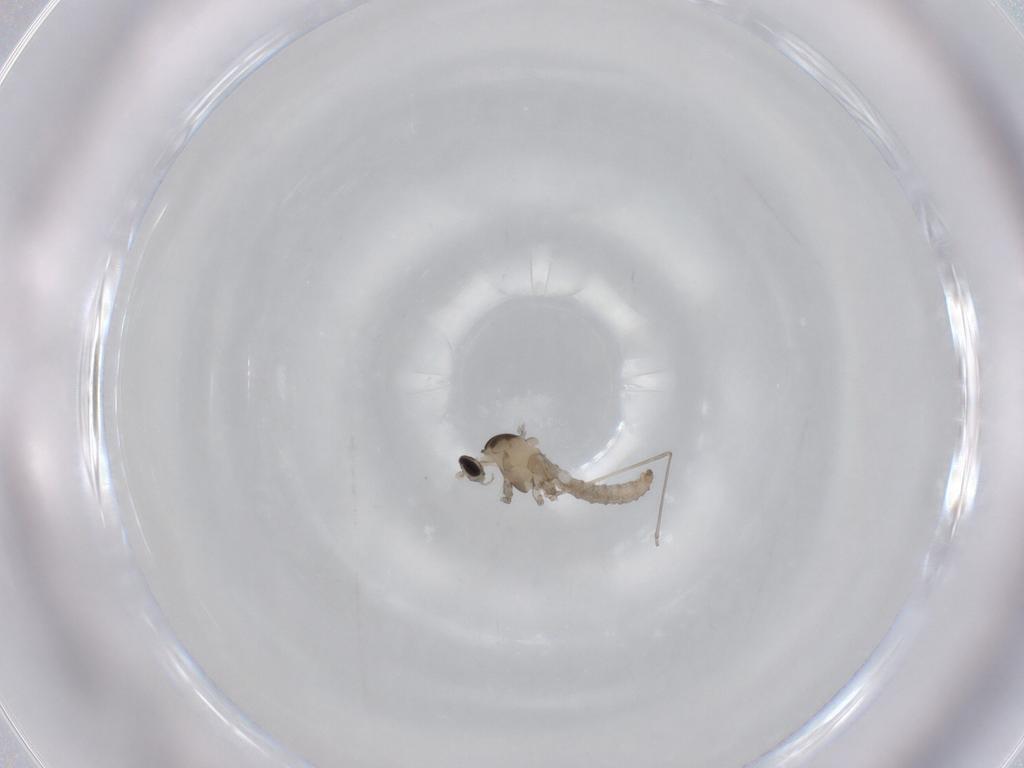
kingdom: Animalia
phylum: Arthropoda
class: Insecta
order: Diptera
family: Cecidomyiidae
